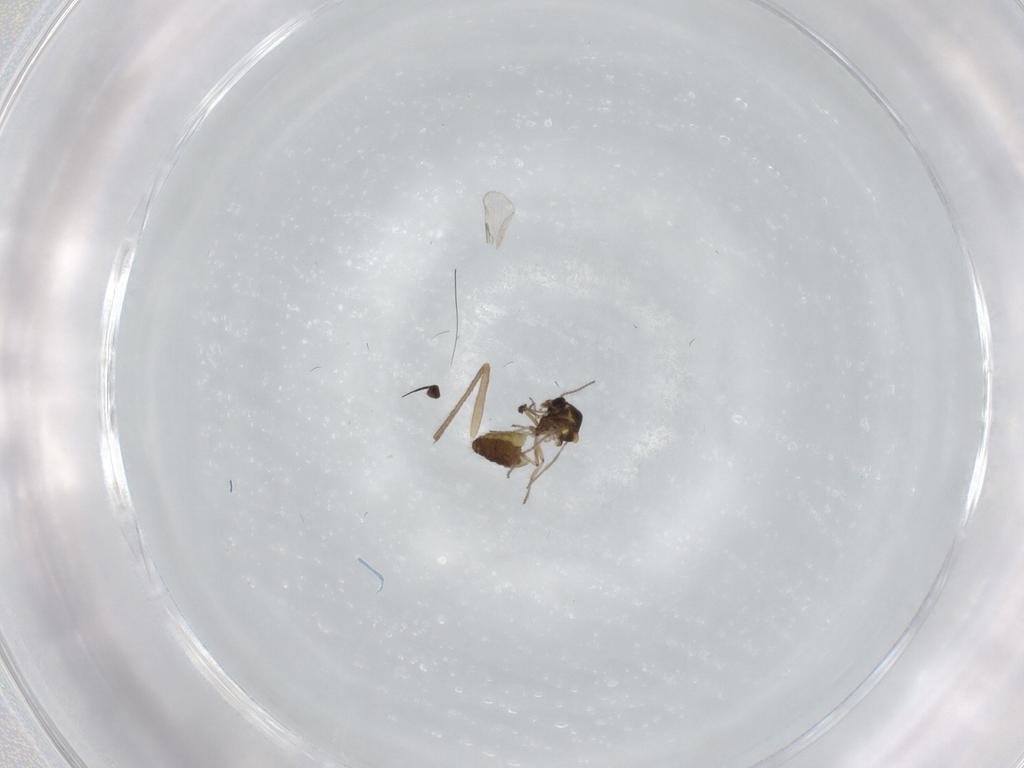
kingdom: Animalia
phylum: Arthropoda
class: Insecta
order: Diptera
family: Ceratopogonidae
